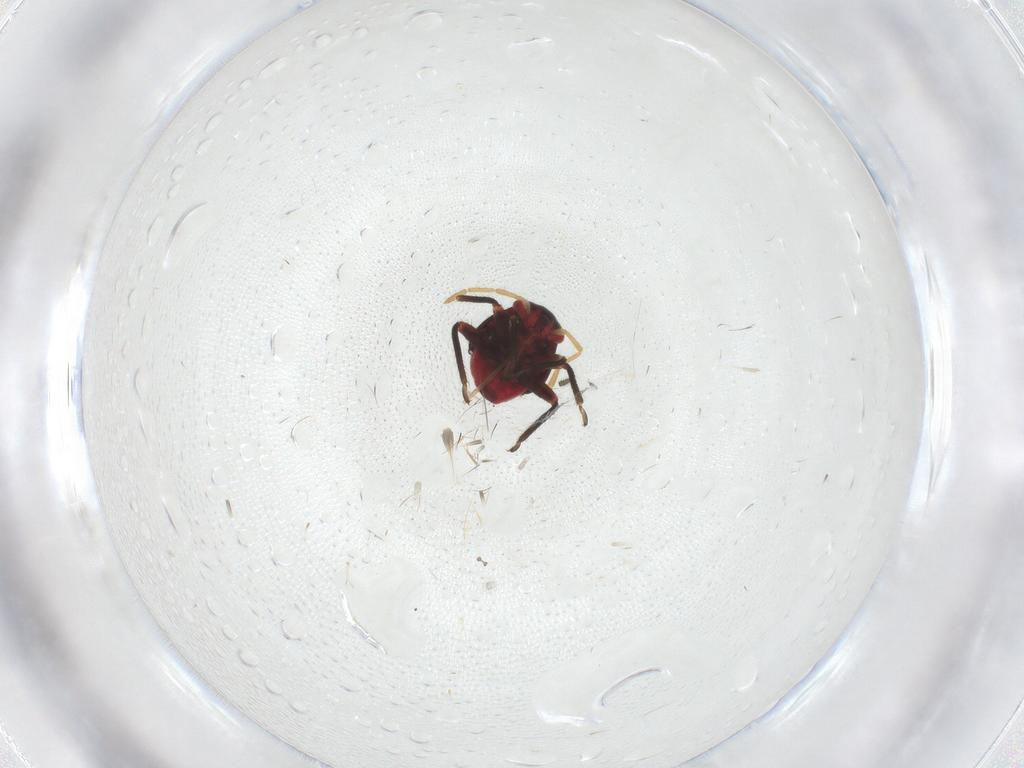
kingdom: Animalia
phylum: Arthropoda
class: Insecta
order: Hemiptera
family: Miridae
